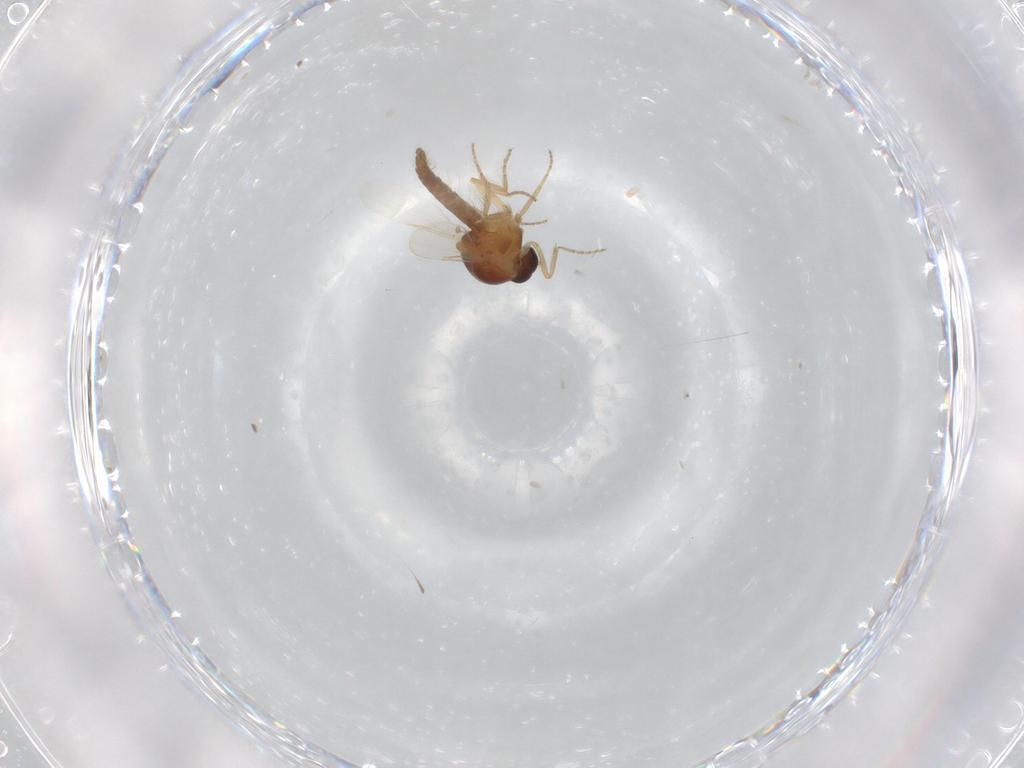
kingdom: Animalia
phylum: Arthropoda
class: Insecta
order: Diptera
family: Ceratopogonidae
